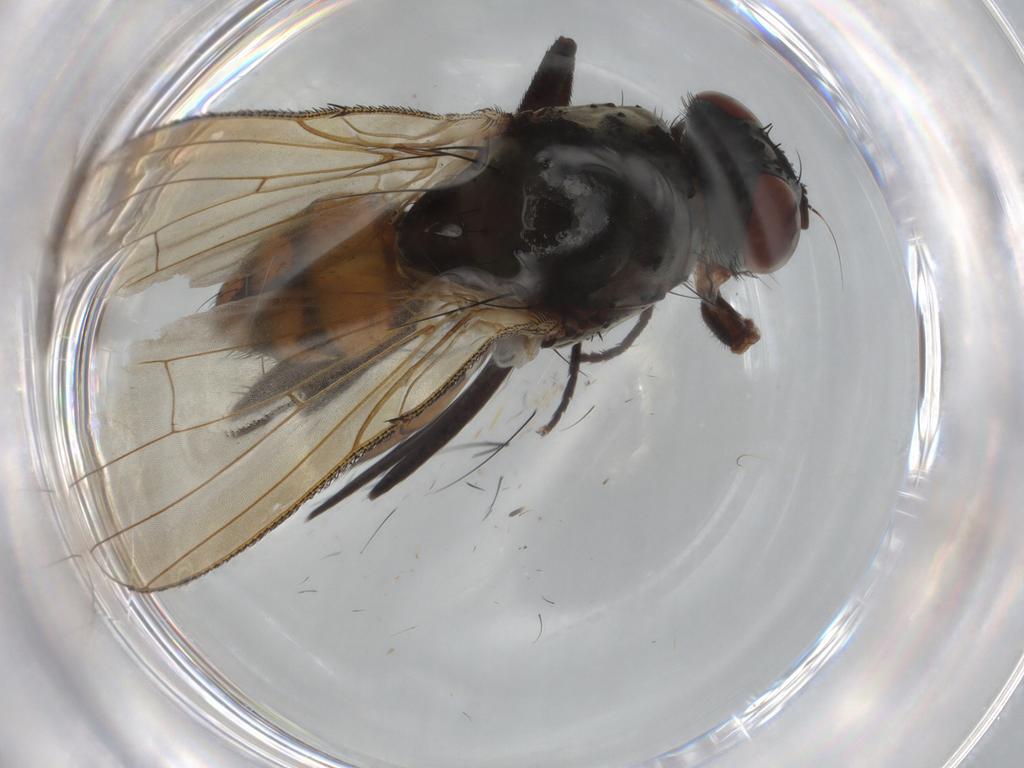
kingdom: Animalia
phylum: Arthropoda
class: Insecta
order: Diptera
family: Anthomyiidae
